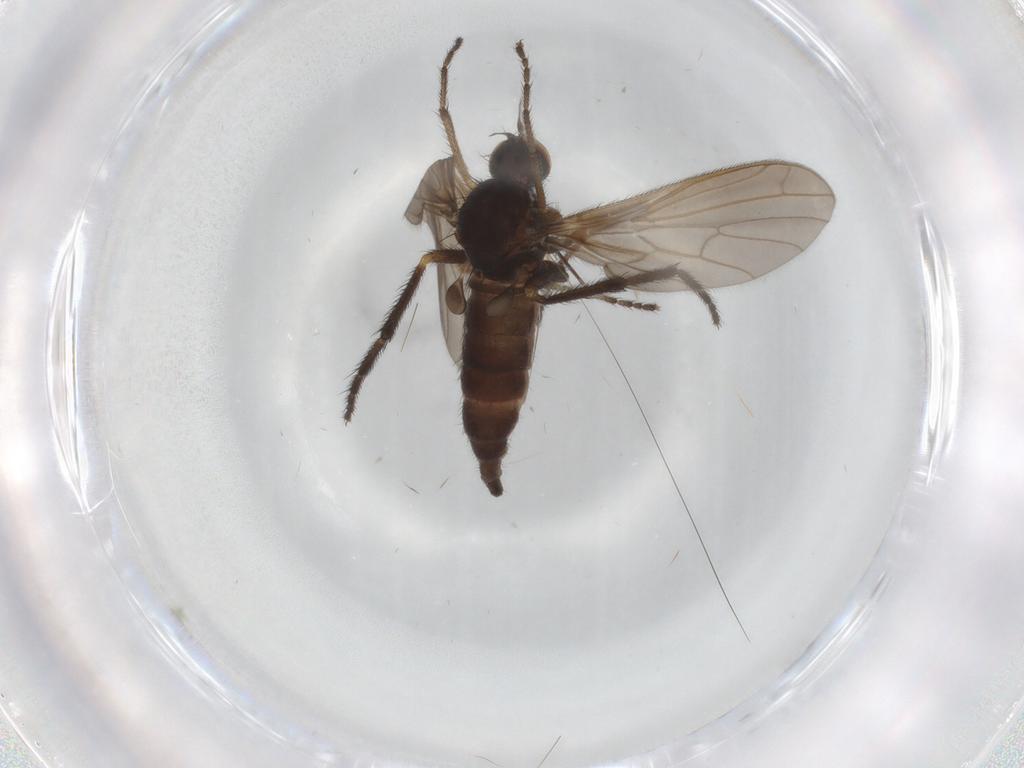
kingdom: Animalia
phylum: Arthropoda
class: Insecta
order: Diptera
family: Empididae
